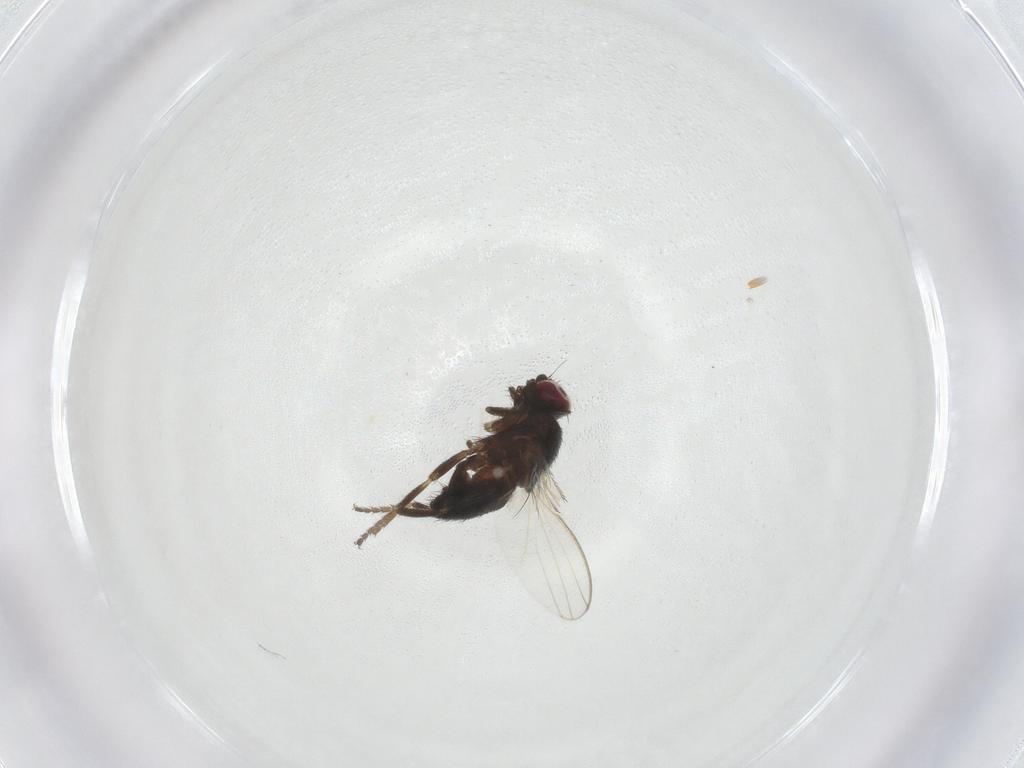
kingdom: Animalia
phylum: Arthropoda
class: Insecta
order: Diptera
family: Milichiidae
